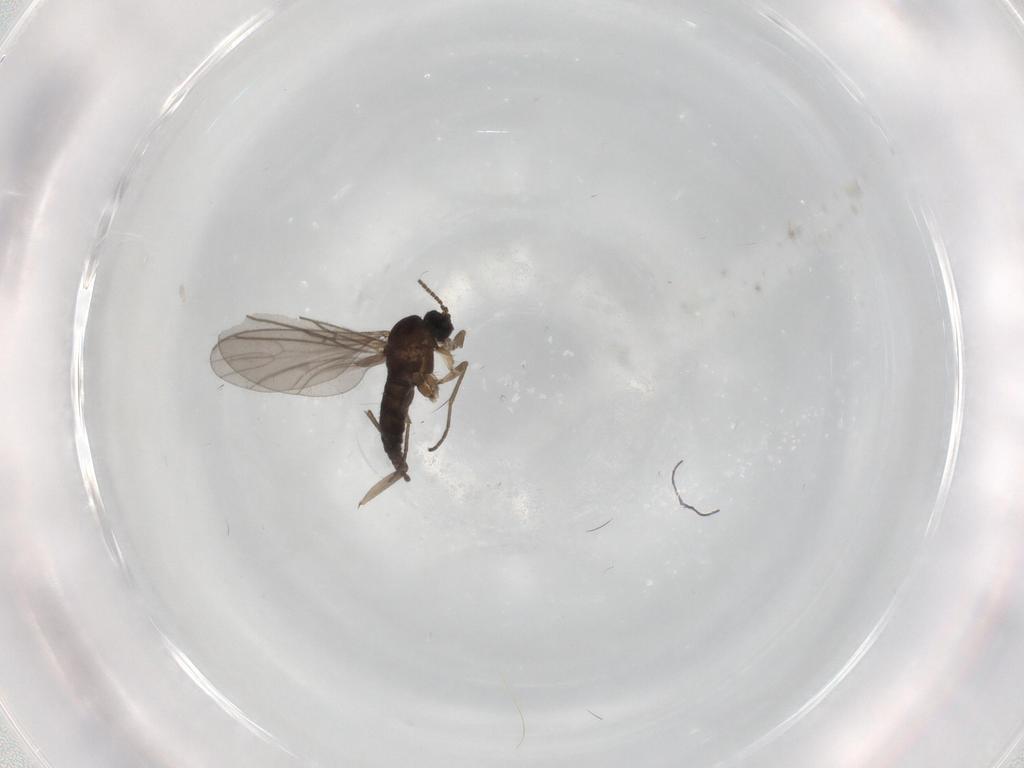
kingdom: Animalia
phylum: Arthropoda
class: Insecta
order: Diptera
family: Sciaridae
